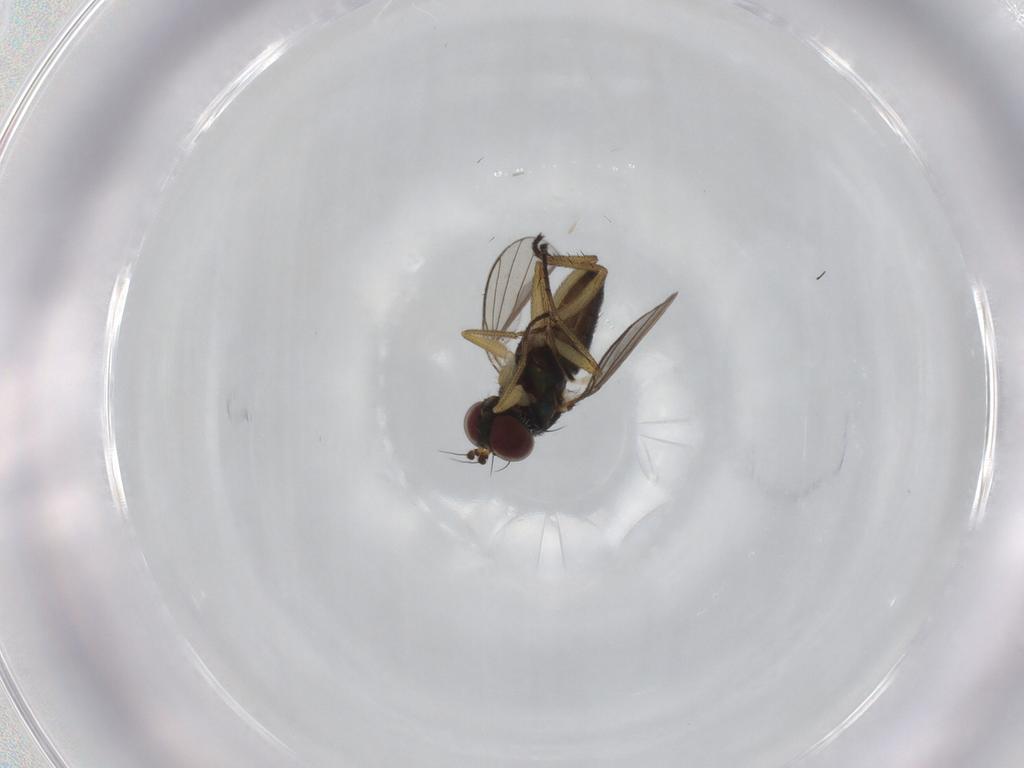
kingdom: Animalia
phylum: Arthropoda
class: Insecta
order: Diptera
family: Dolichopodidae
